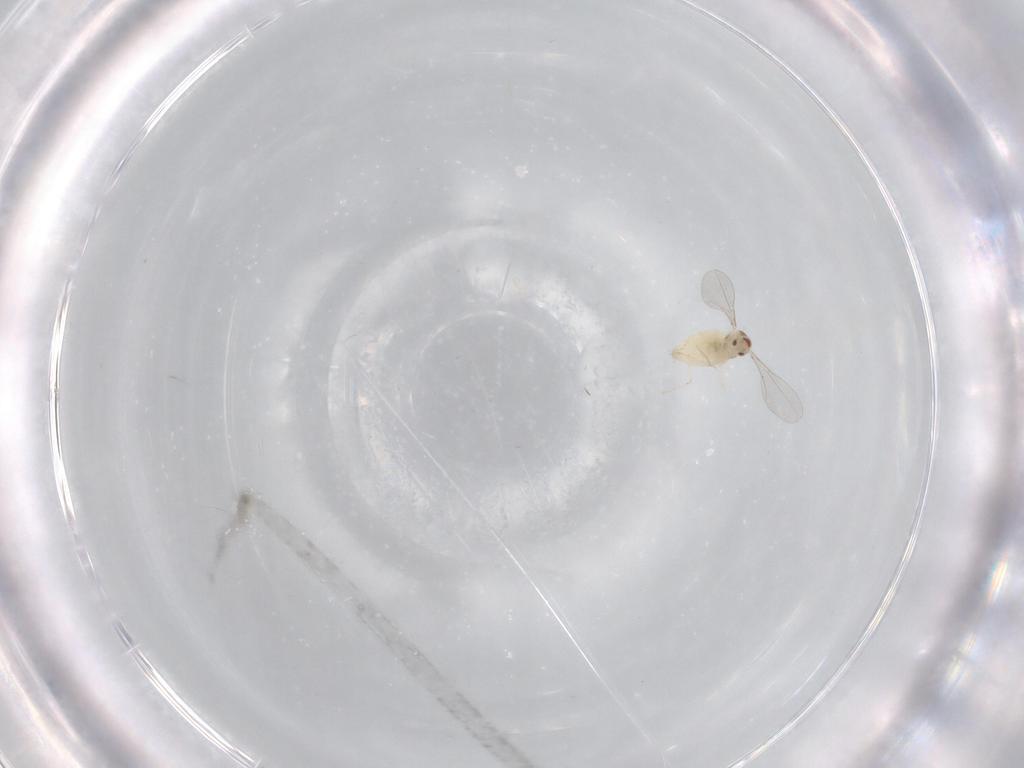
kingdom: Animalia
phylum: Arthropoda
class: Insecta
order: Diptera
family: Cecidomyiidae
